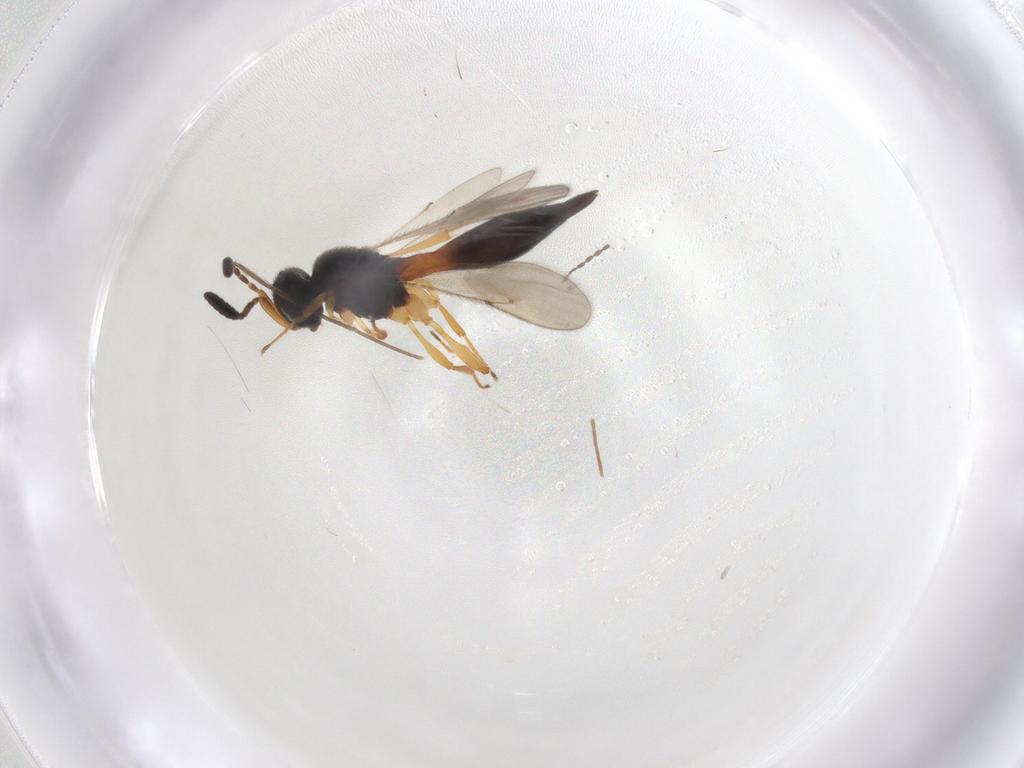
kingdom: Animalia
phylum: Arthropoda
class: Insecta
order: Hymenoptera
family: Scelionidae
